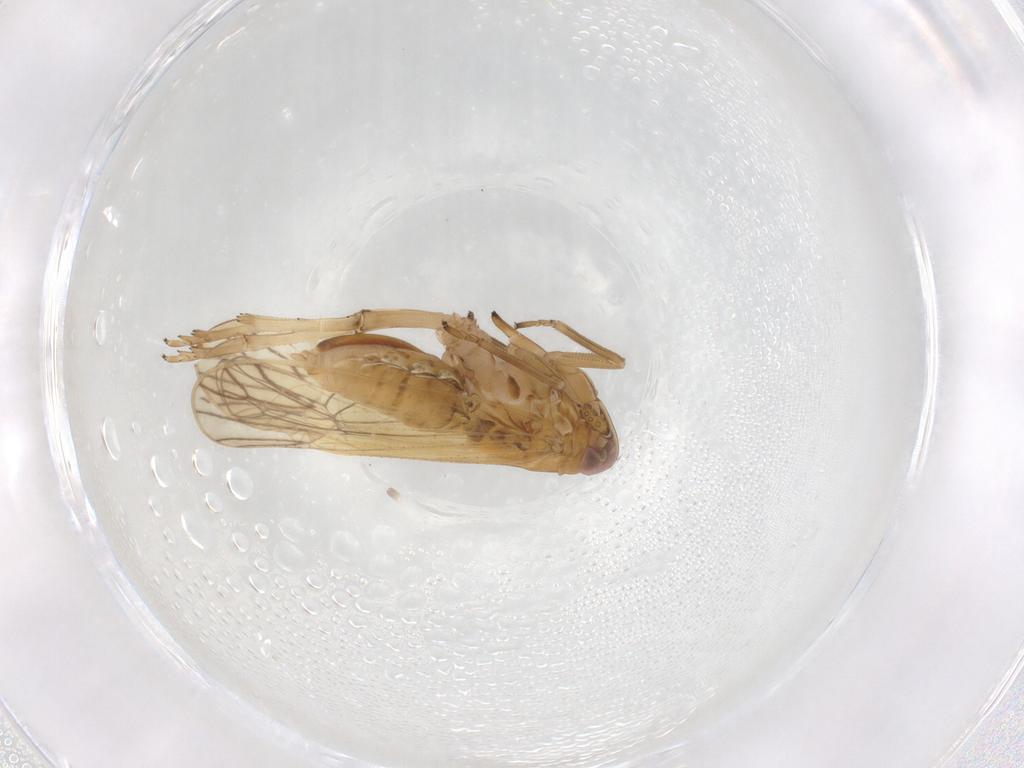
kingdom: Animalia
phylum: Arthropoda
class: Insecta
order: Hemiptera
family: Delphacidae
